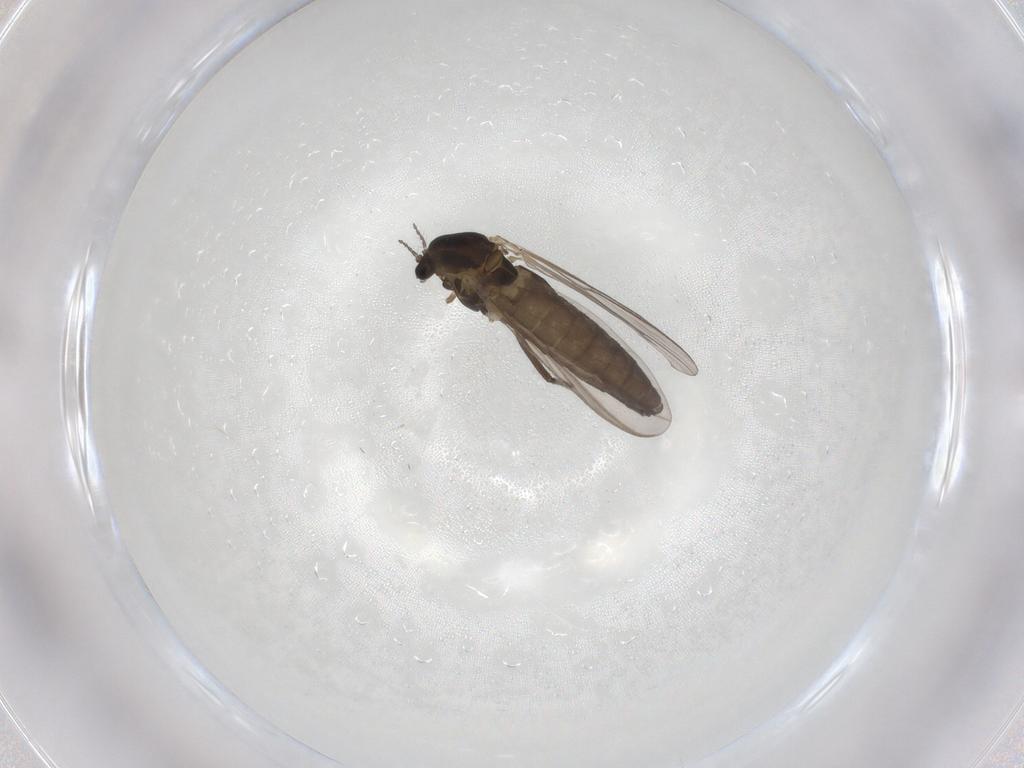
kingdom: Animalia
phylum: Arthropoda
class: Insecta
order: Diptera
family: Chironomidae
